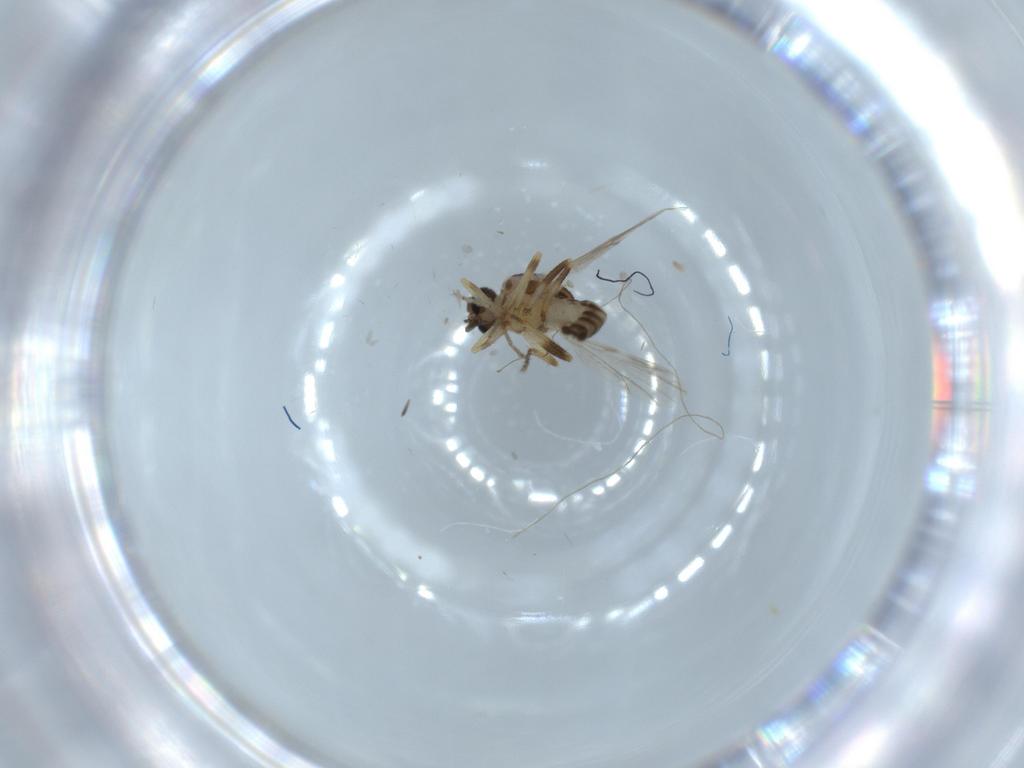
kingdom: Animalia
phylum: Arthropoda
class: Insecta
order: Diptera
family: Ceratopogonidae
